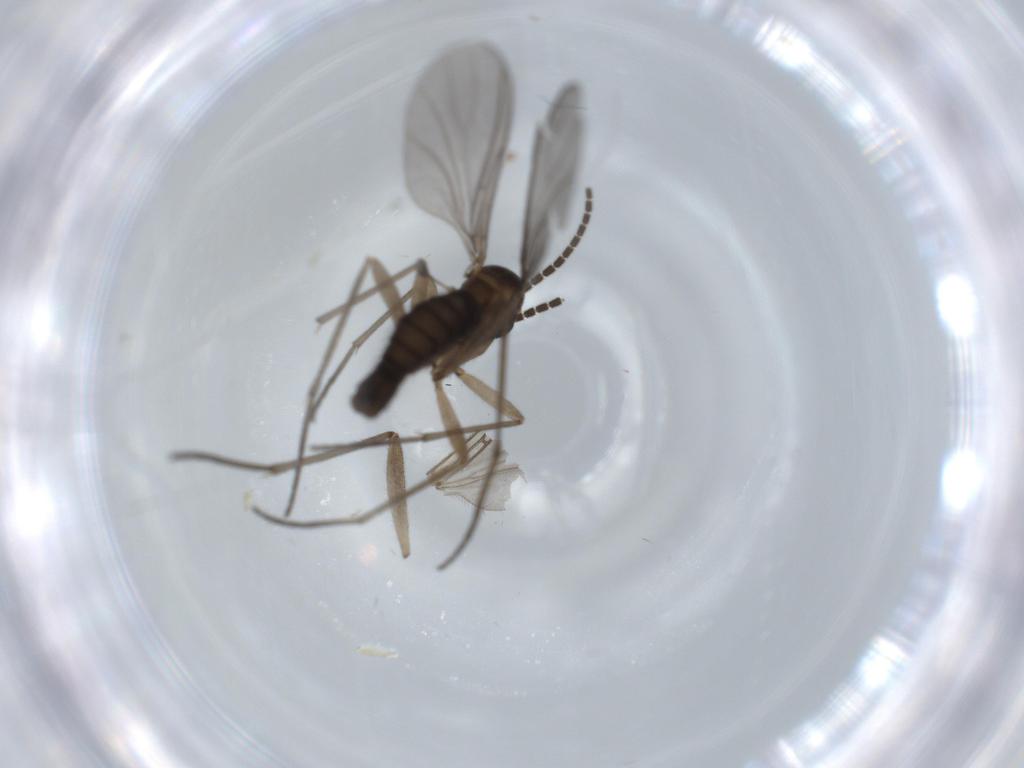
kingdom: Animalia
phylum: Arthropoda
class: Insecta
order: Diptera
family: Sciaridae
